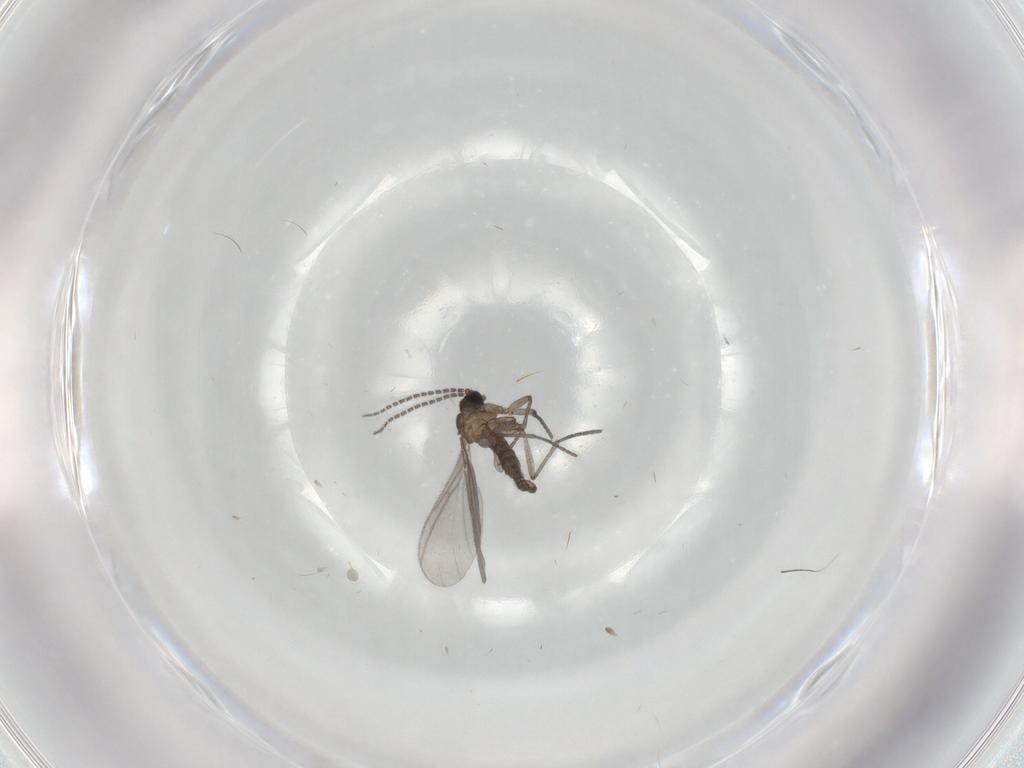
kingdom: Animalia
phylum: Arthropoda
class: Insecta
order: Diptera
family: Sciaridae
